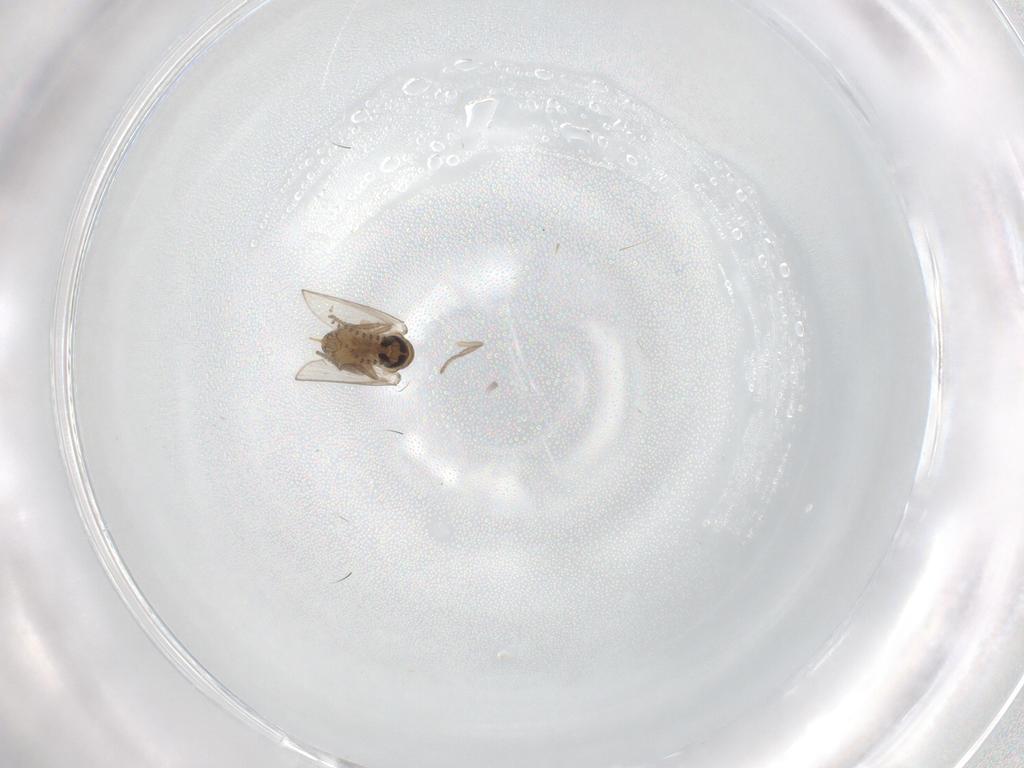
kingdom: Animalia
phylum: Arthropoda
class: Insecta
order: Diptera
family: Psychodidae
